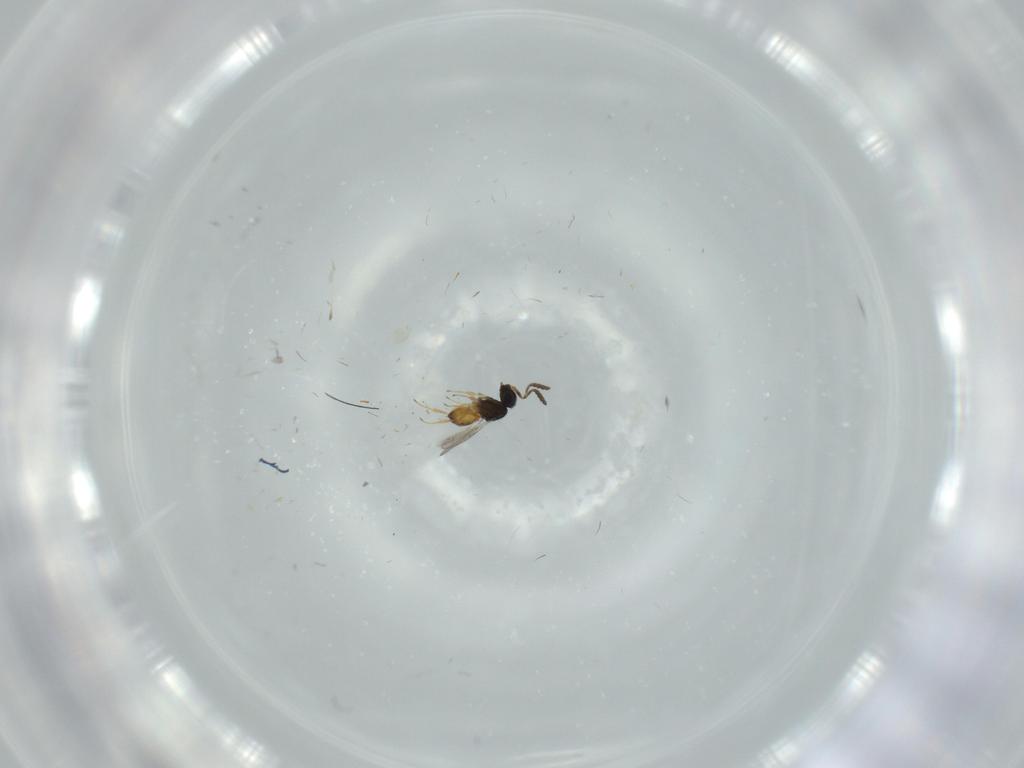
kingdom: Animalia
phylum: Arthropoda
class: Insecta
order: Hymenoptera
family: Scelionidae
